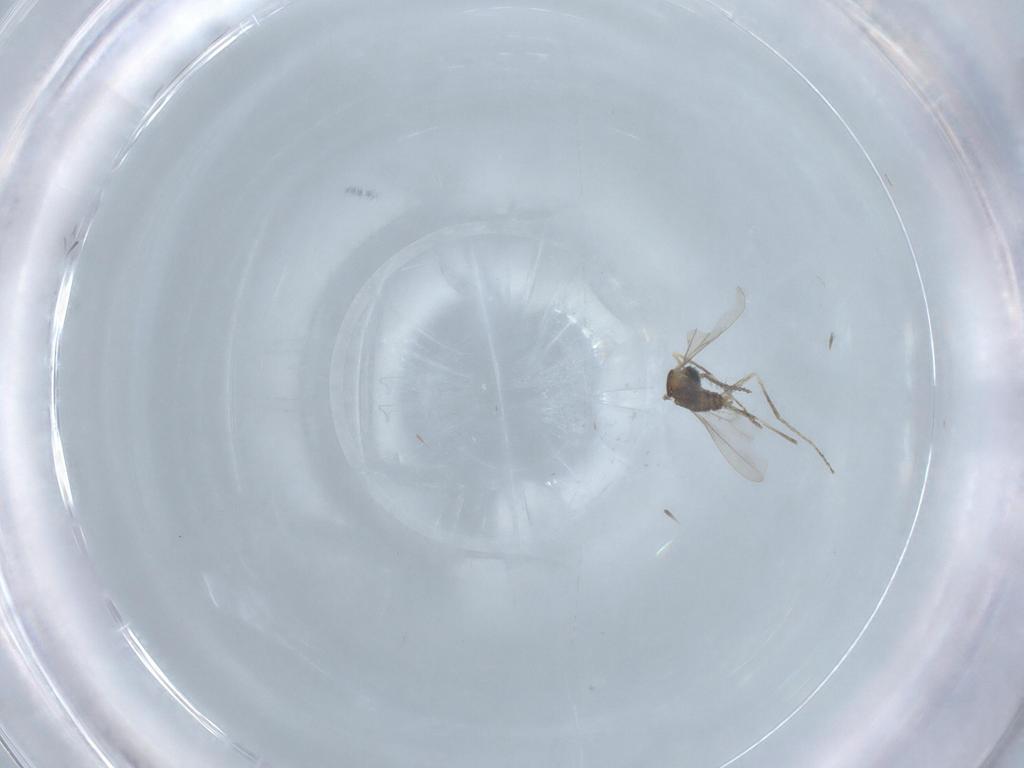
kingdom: Animalia
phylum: Arthropoda
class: Insecta
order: Diptera
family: Cecidomyiidae
